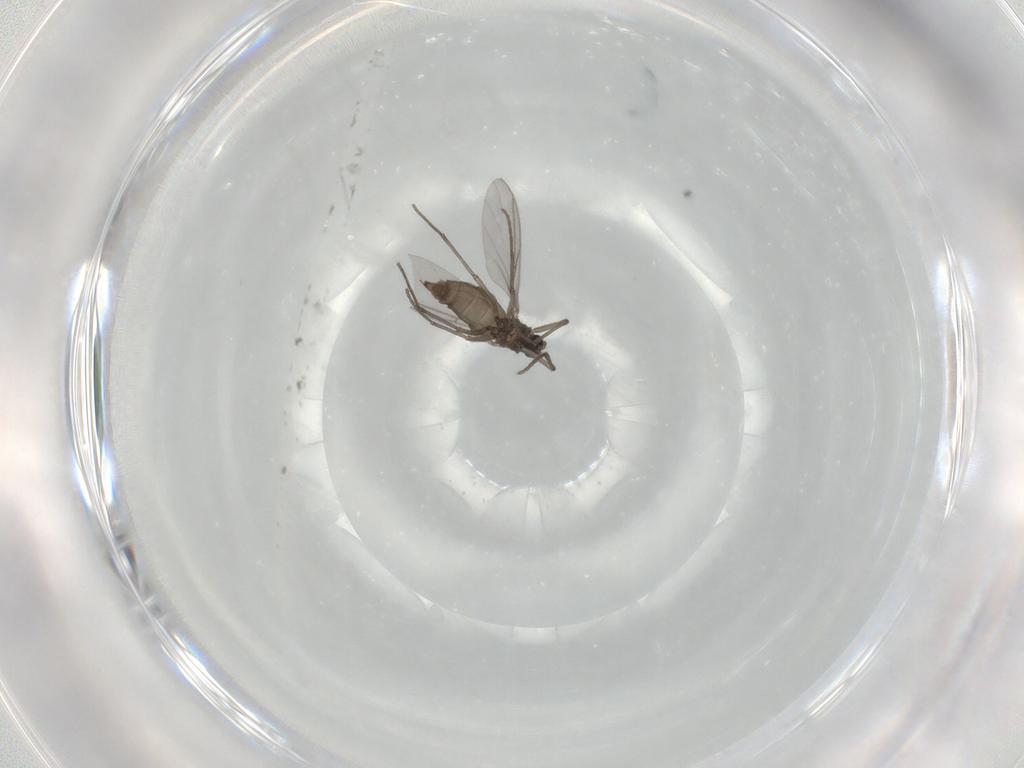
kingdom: Animalia
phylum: Arthropoda
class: Insecta
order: Diptera
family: Sciaridae
